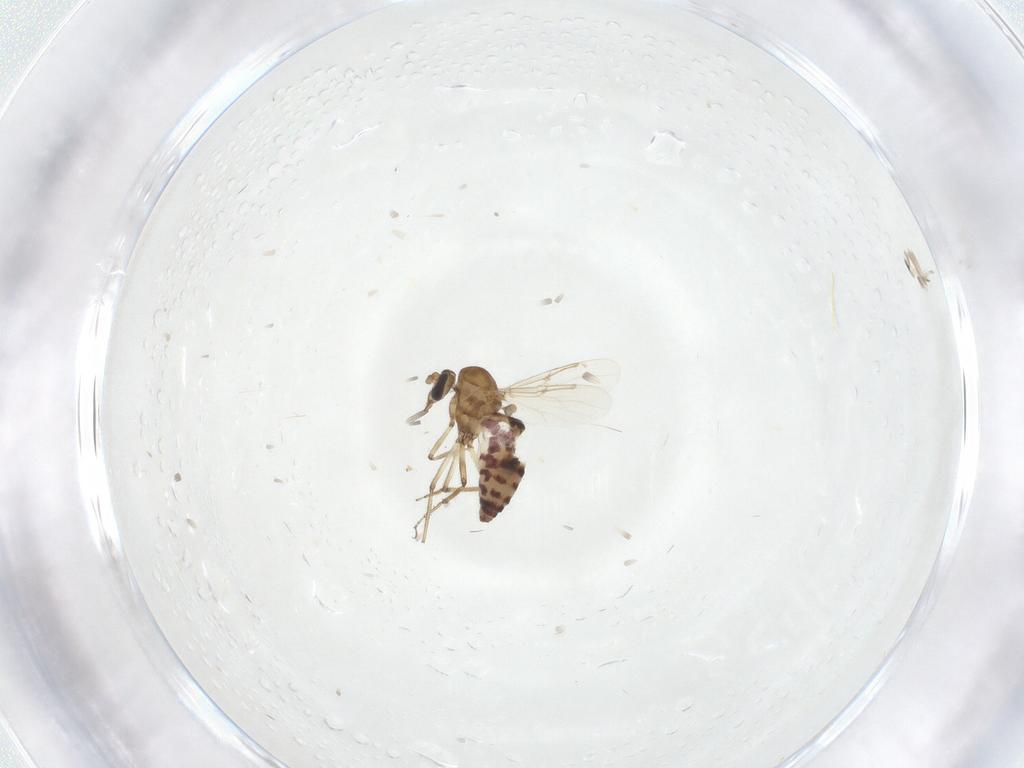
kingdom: Animalia
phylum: Arthropoda
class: Insecta
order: Diptera
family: Ceratopogonidae
